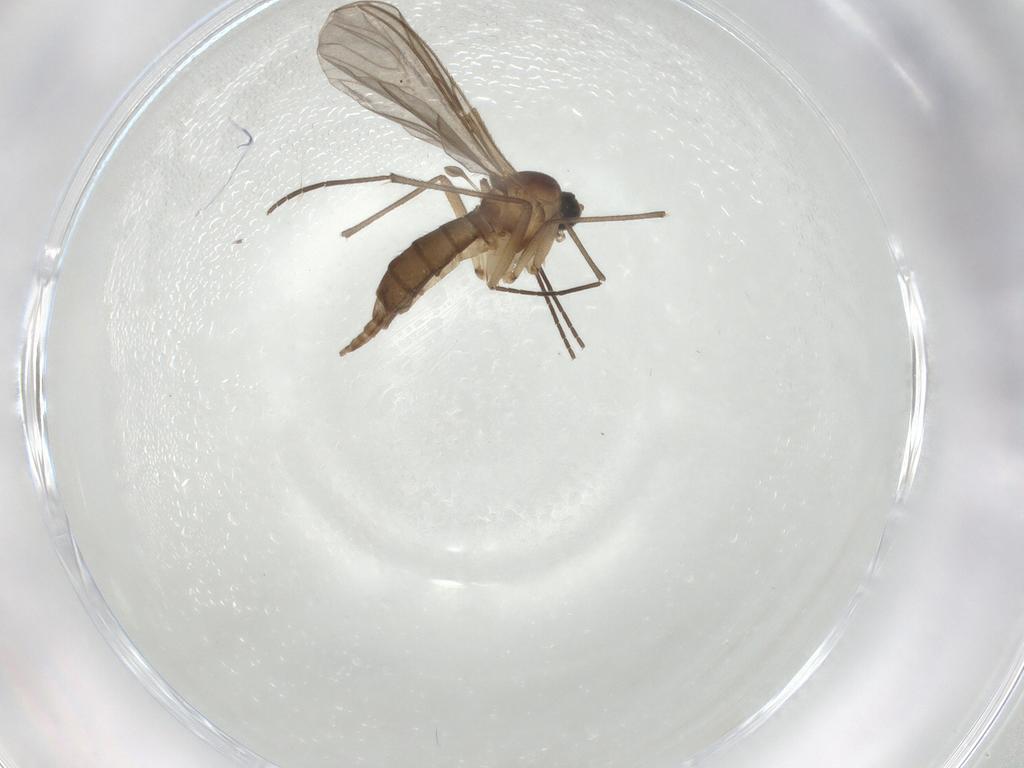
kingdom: Animalia
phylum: Arthropoda
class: Insecta
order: Diptera
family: Sciaridae
